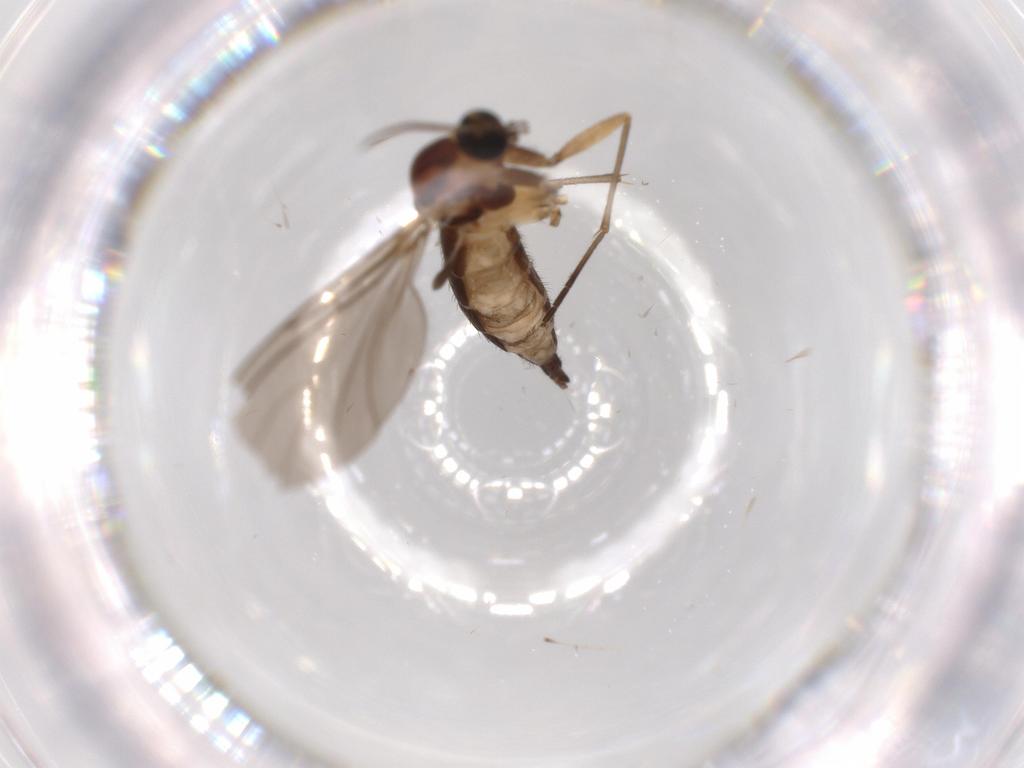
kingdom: Animalia
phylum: Arthropoda
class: Insecta
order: Diptera
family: Sciaridae
